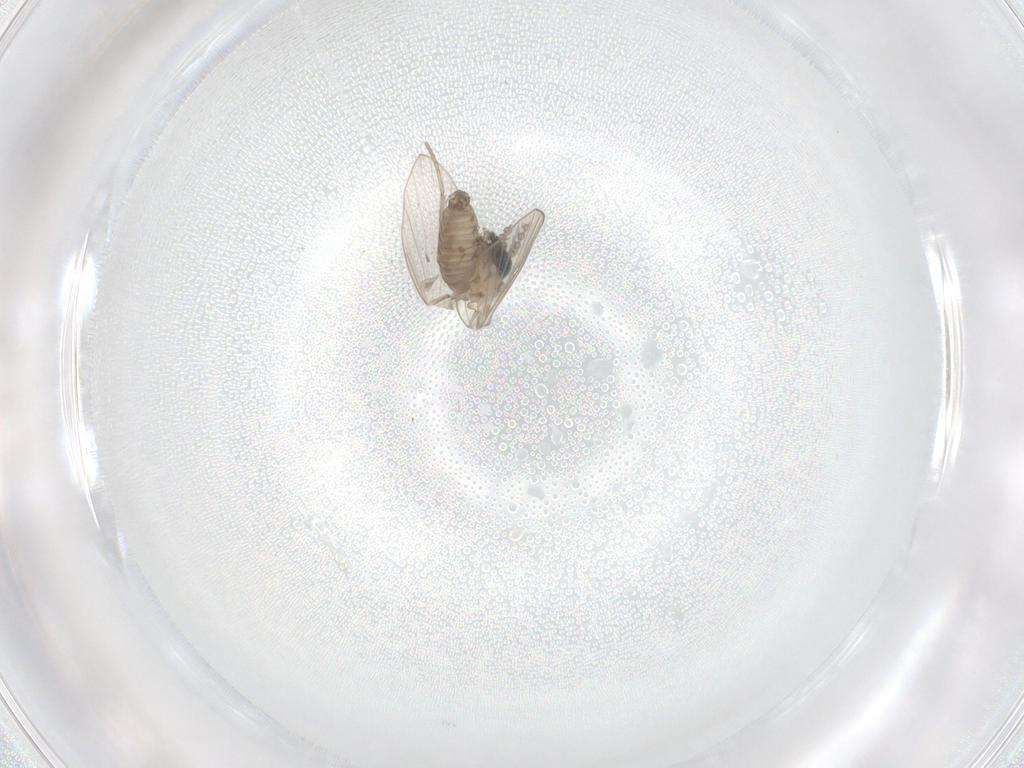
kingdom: Animalia
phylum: Arthropoda
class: Insecta
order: Diptera
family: Psychodidae
